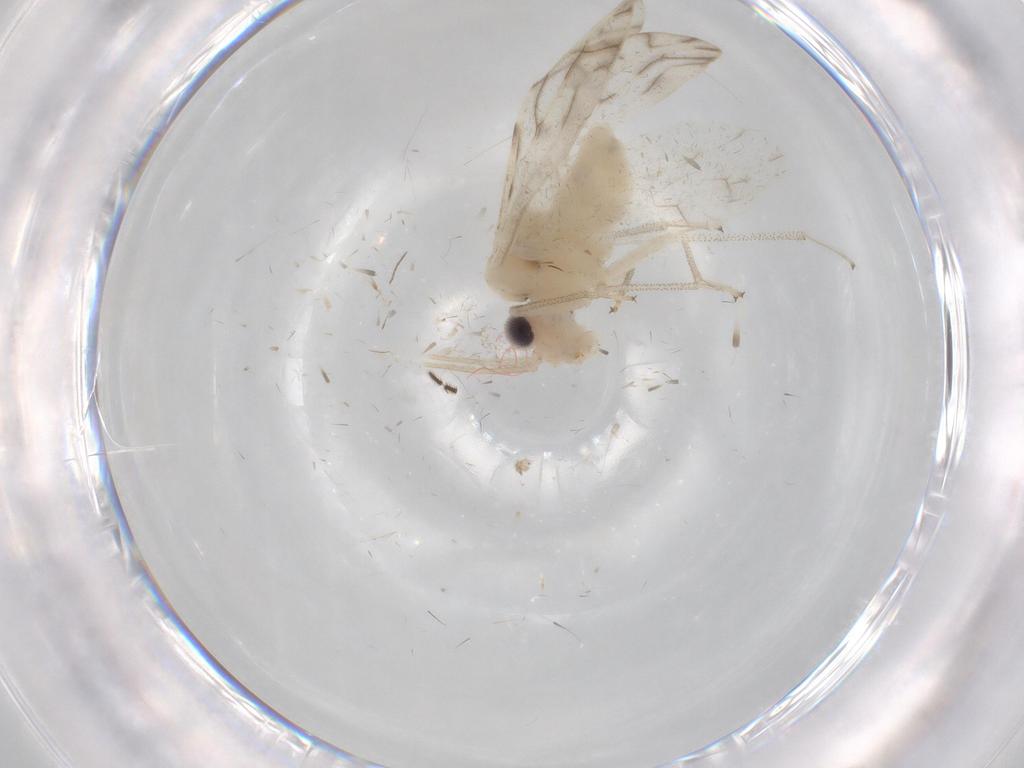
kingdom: Animalia
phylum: Arthropoda
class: Insecta
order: Psocodea
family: Caeciliusidae
